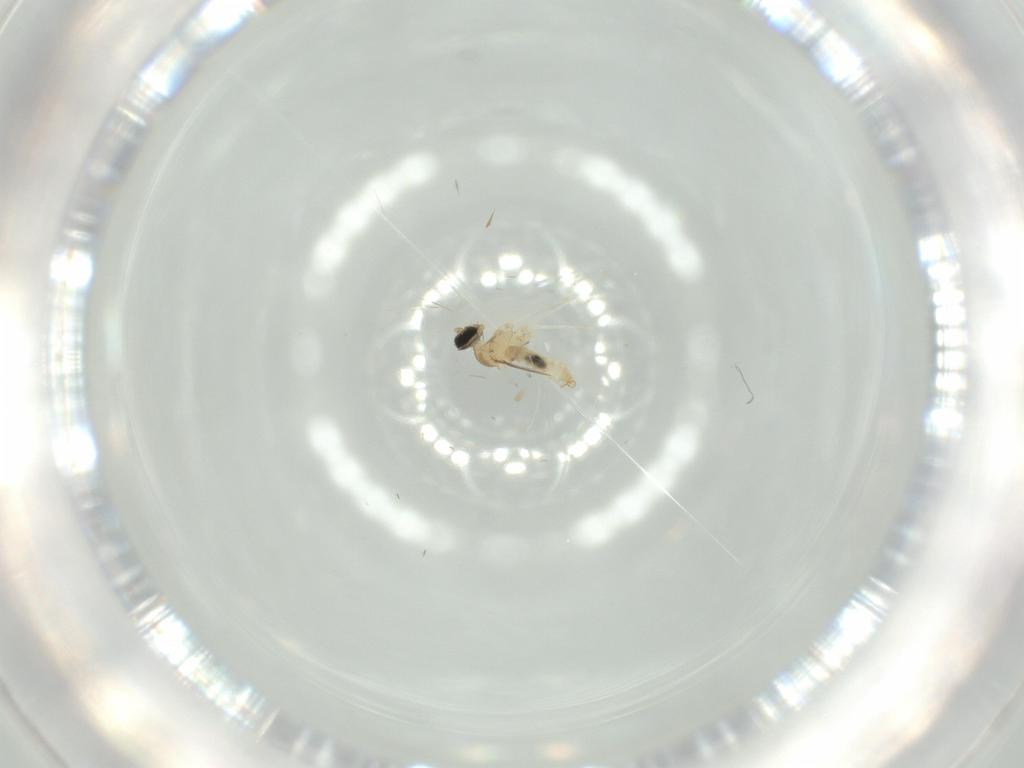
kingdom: Animalia
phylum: Arthropoda
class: Insecta
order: Diptera
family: Cecidomyiidae
